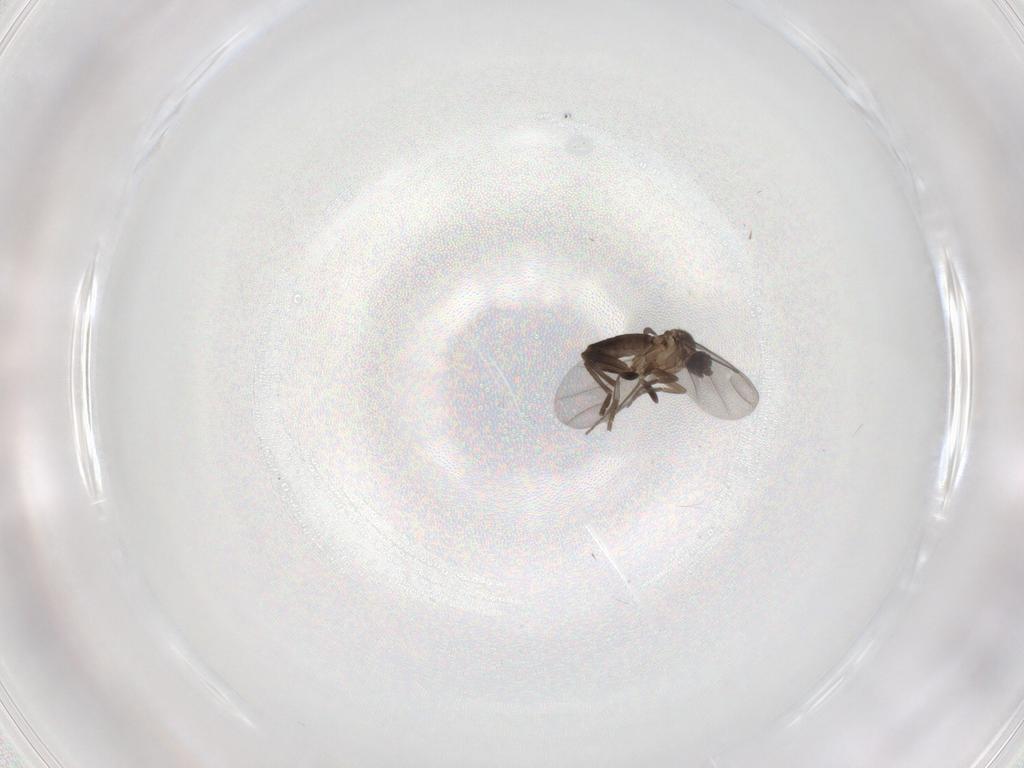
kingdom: Animalia
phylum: Arthropoda
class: Insecta
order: Diptera
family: Phoridae
